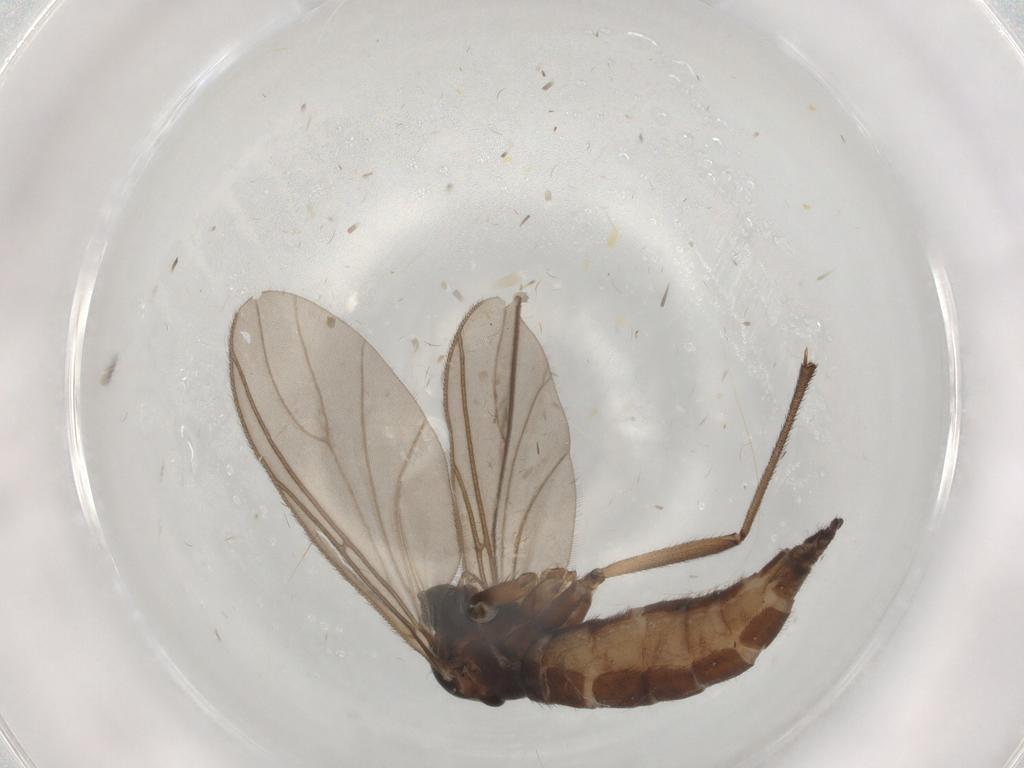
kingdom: Animalia
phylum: Arthropoda
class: Insecta
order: Diptera
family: Sciaridae
